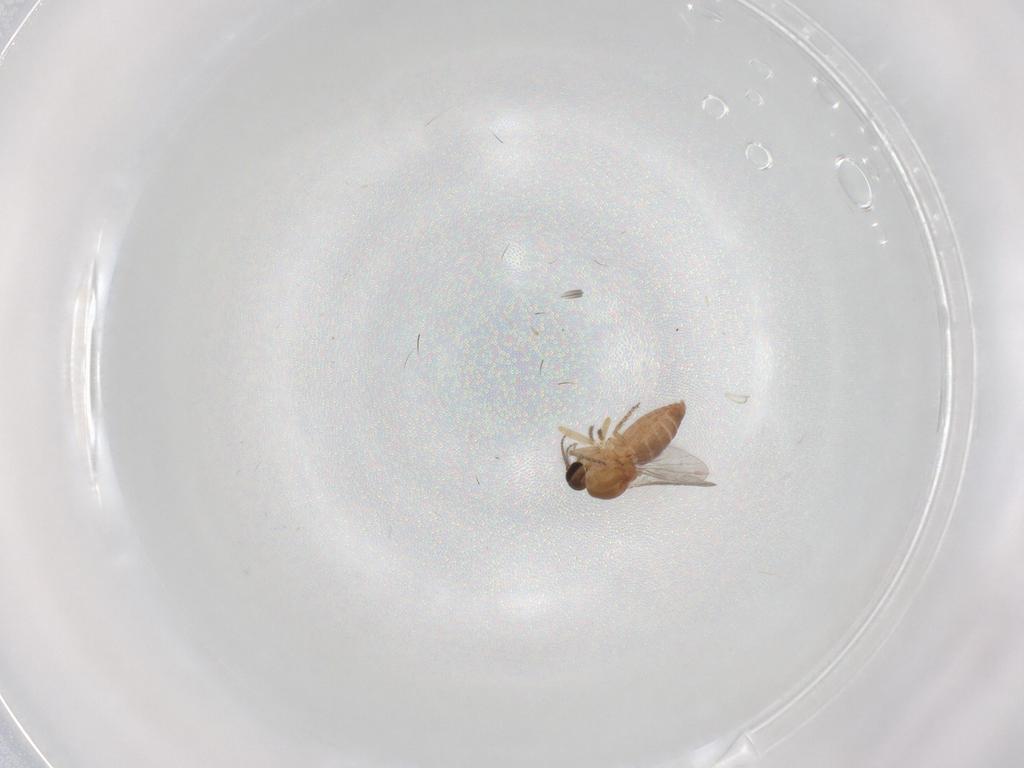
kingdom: Animalia
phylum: Arthropoda
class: Insecta
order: Diptera
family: Ceratopogonidae
